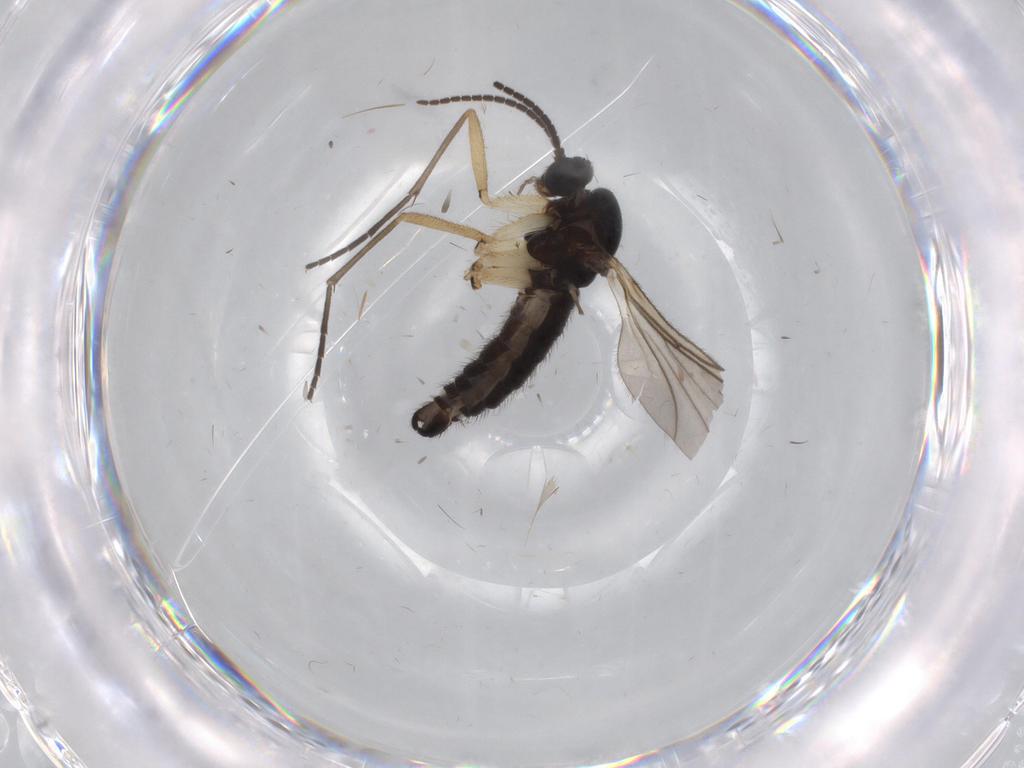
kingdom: Animalia
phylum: Arthropoda
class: Insecta
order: Diptera
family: Sciaridae
